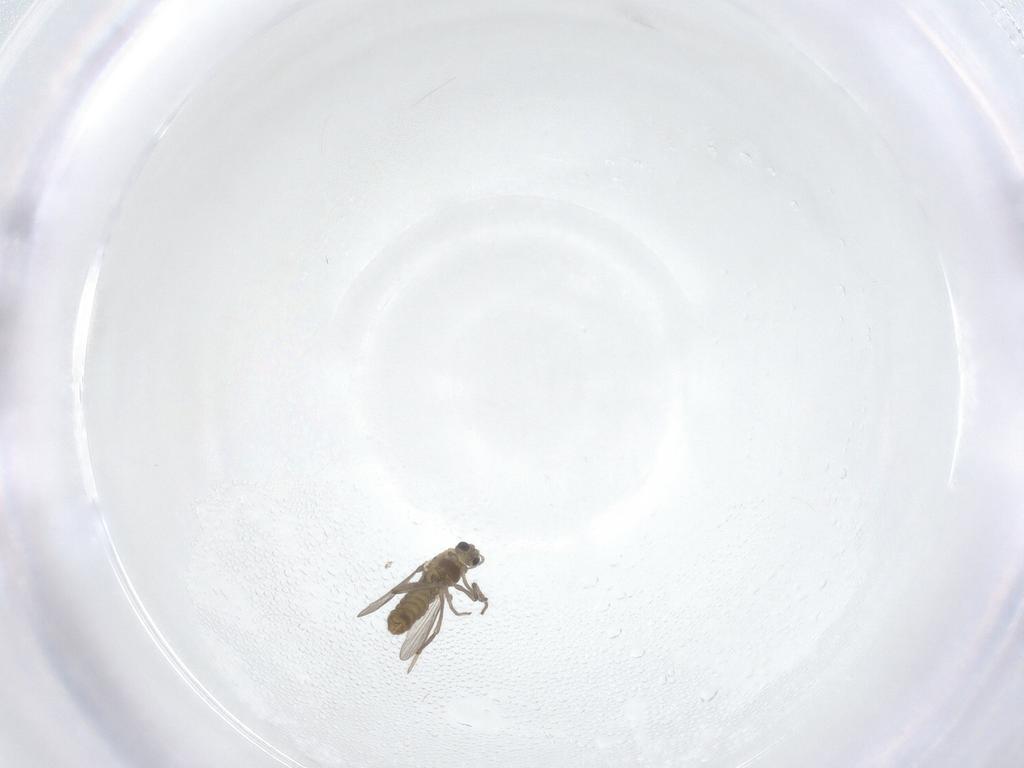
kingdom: Animalia
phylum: Arthropoda
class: Insecta
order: Diptera
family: Chironomidae
